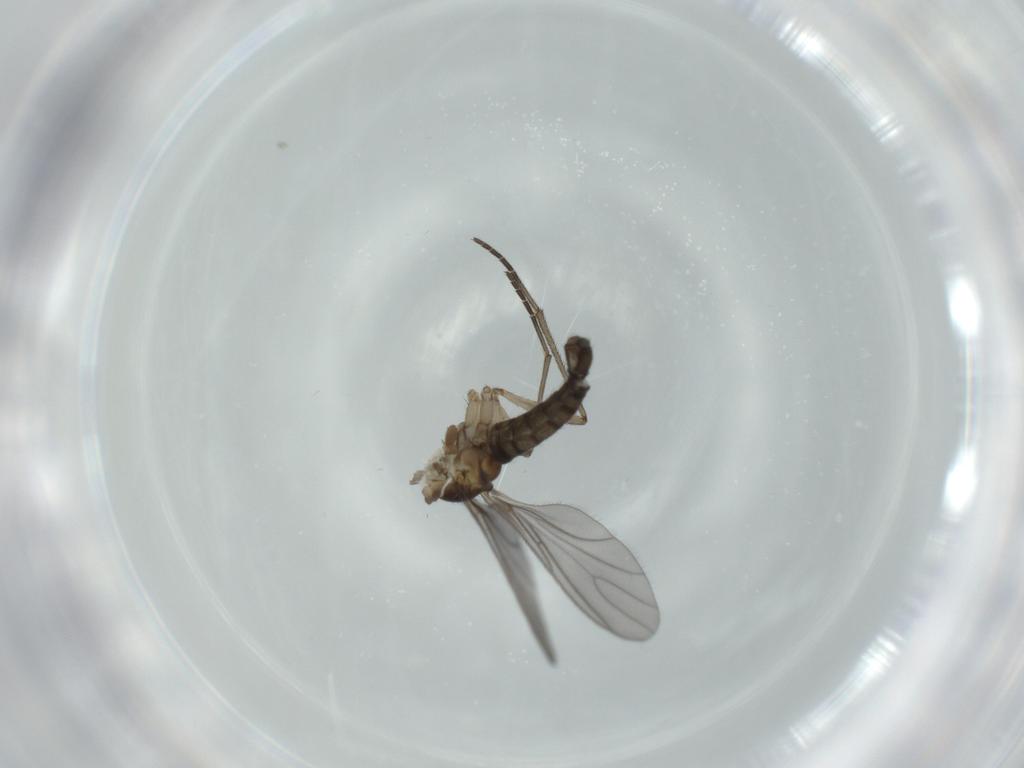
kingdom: Animalia
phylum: Arthropoda
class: Insecta
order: Diptera
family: Sciaridae
